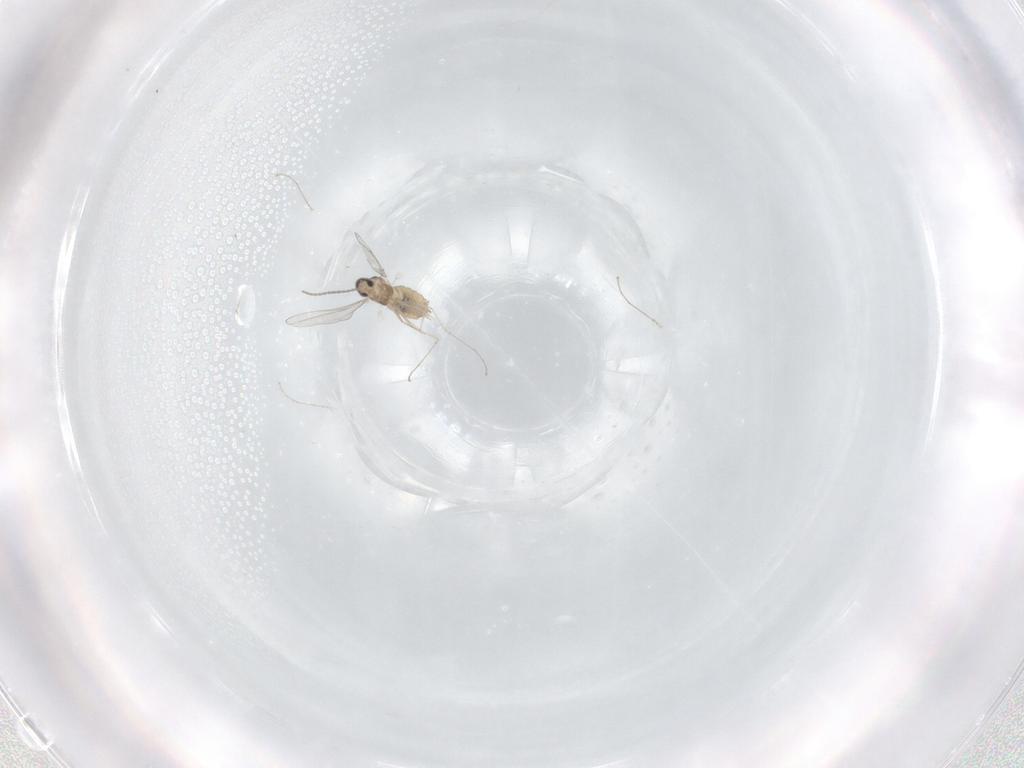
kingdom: Animalia
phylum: Arthropoda
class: Insecta
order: Diptera
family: Cecidomyiidae
